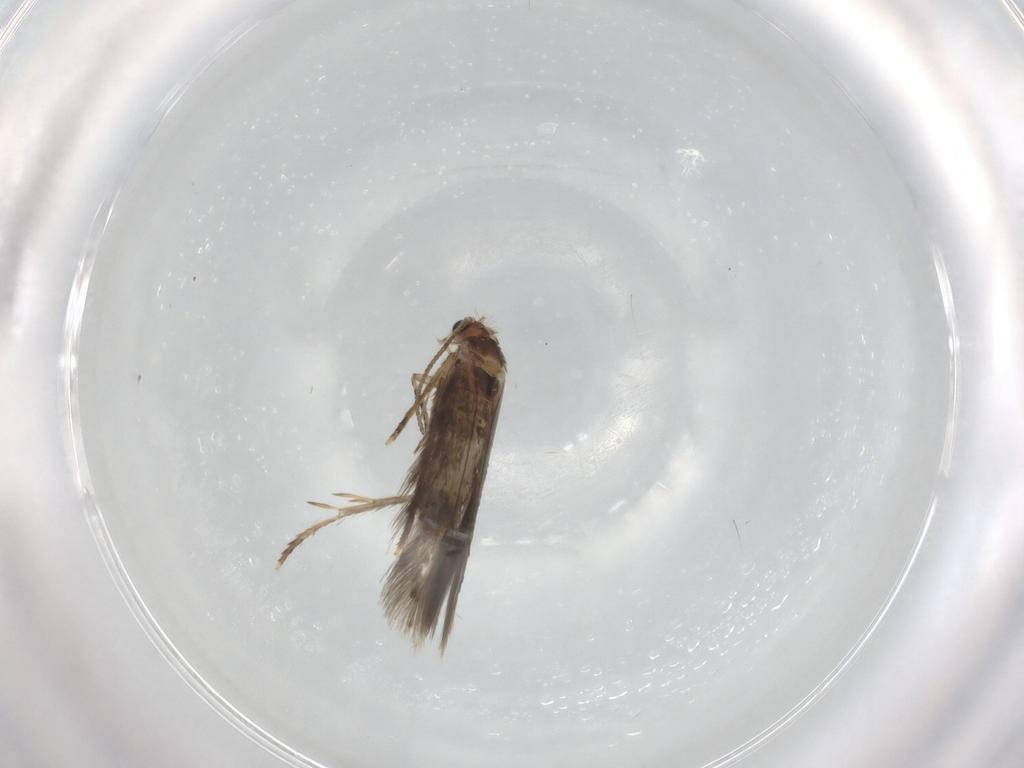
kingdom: Animalia
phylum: Arthropoda
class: Insecta
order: Lepidoptera
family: Nepticulidae
